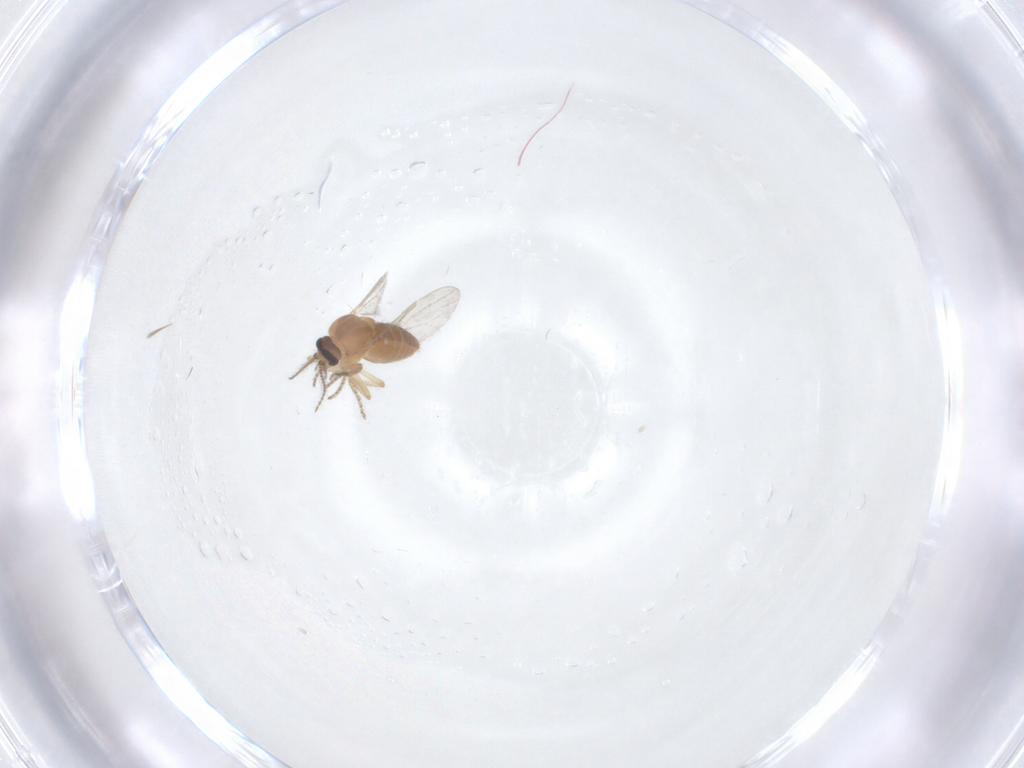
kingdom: Animalia
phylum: Arthropoda
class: Insecta
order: Diptera
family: Ceratopogonidae
